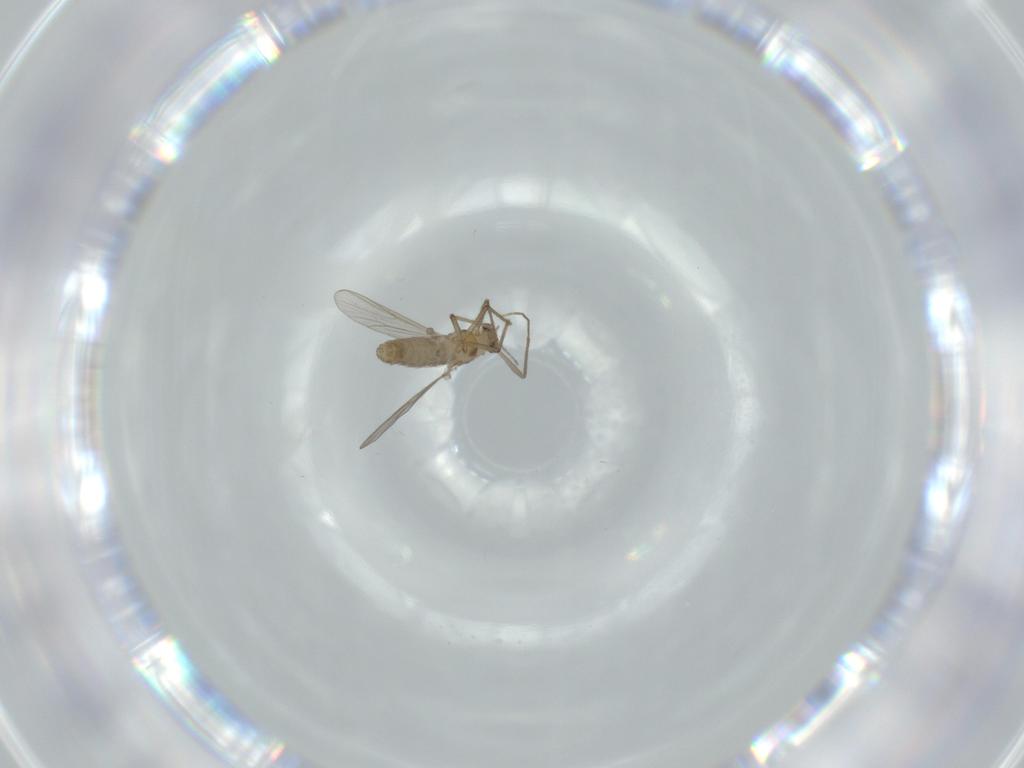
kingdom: Animalia
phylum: Arthropoda
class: Insecta
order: Diptera
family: Chironomidae
